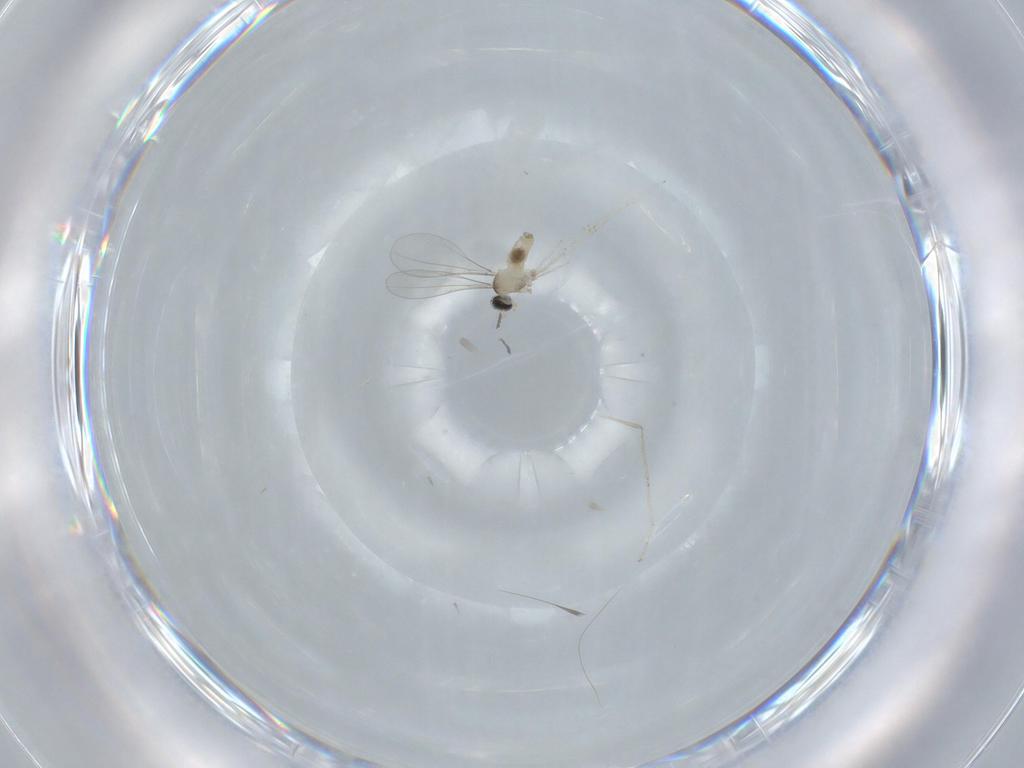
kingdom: Animalia
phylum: Arthropoda
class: Insecta
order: Diptera
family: Cecidomyiidae
